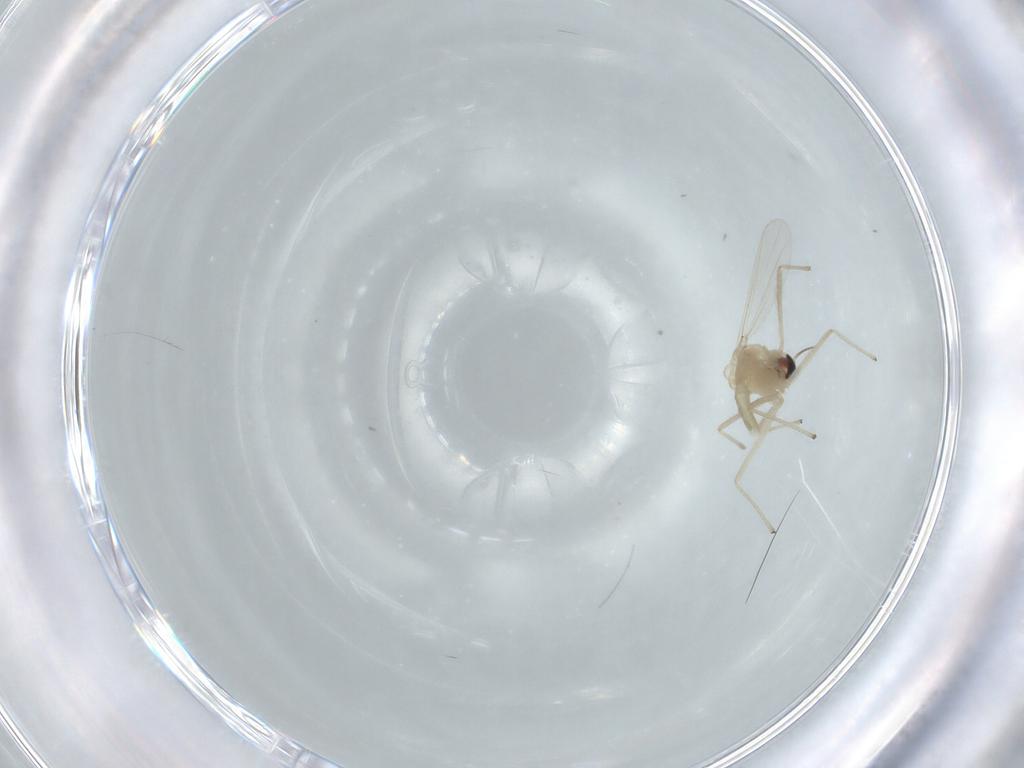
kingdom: Animalia
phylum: Arthropoda
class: Insecta
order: Diptera
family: Chironomidae
